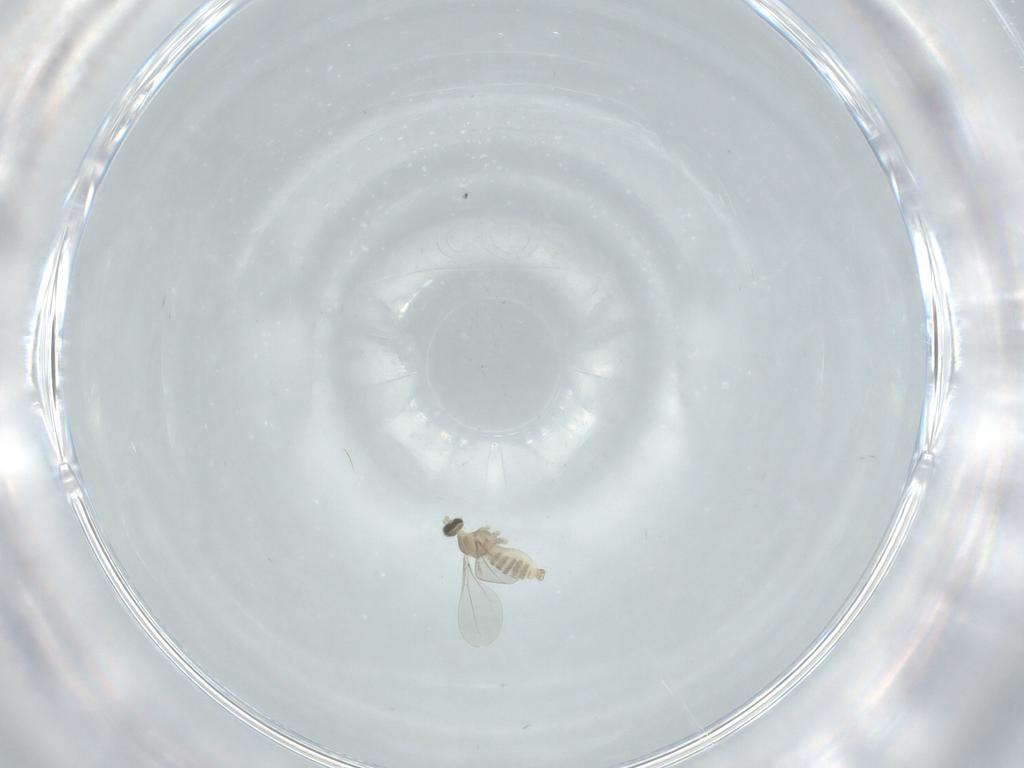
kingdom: Animalia
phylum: Arthropoda
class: Insecta
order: Diptera
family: Cecidomyiidae
